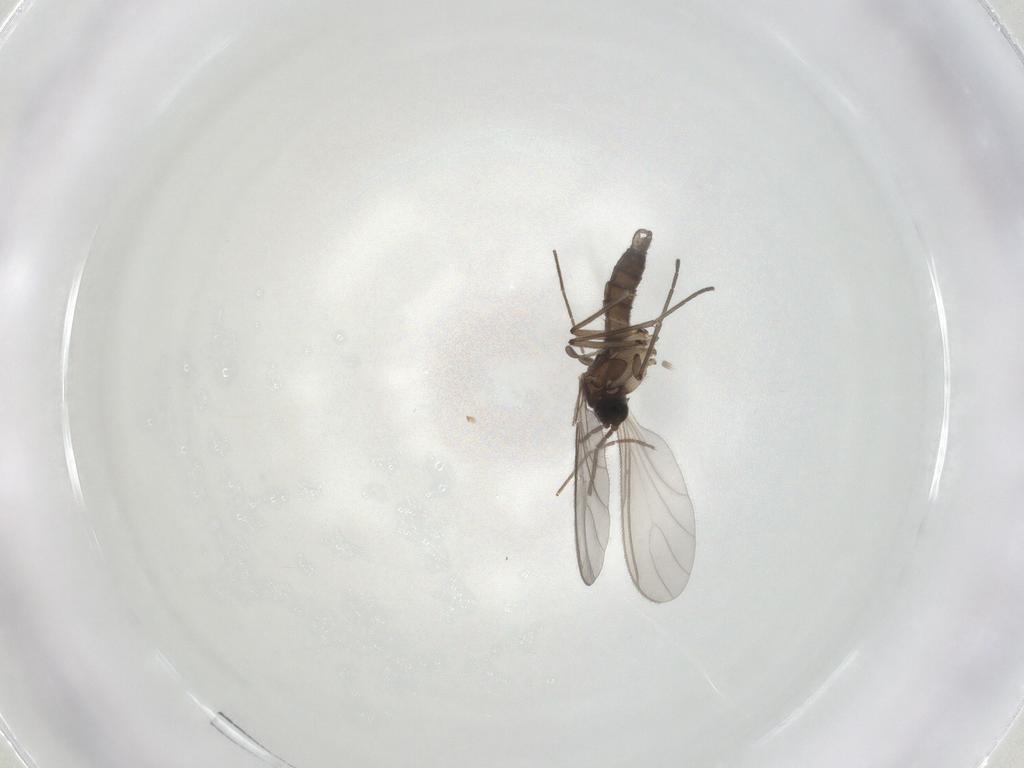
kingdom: Animalia
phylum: Arthropoda
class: Insecta
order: Diptera
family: Sciaridae
